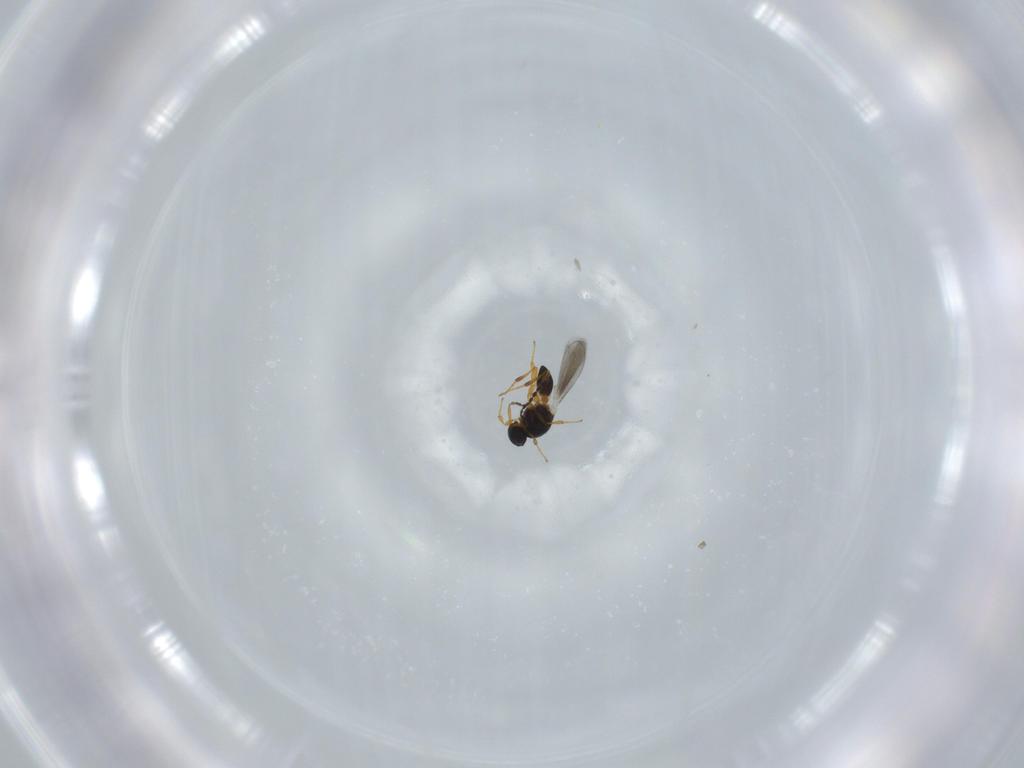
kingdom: Animalia
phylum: Arthropoda
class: Insecta
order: Hymenoptera
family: Platygastridae
